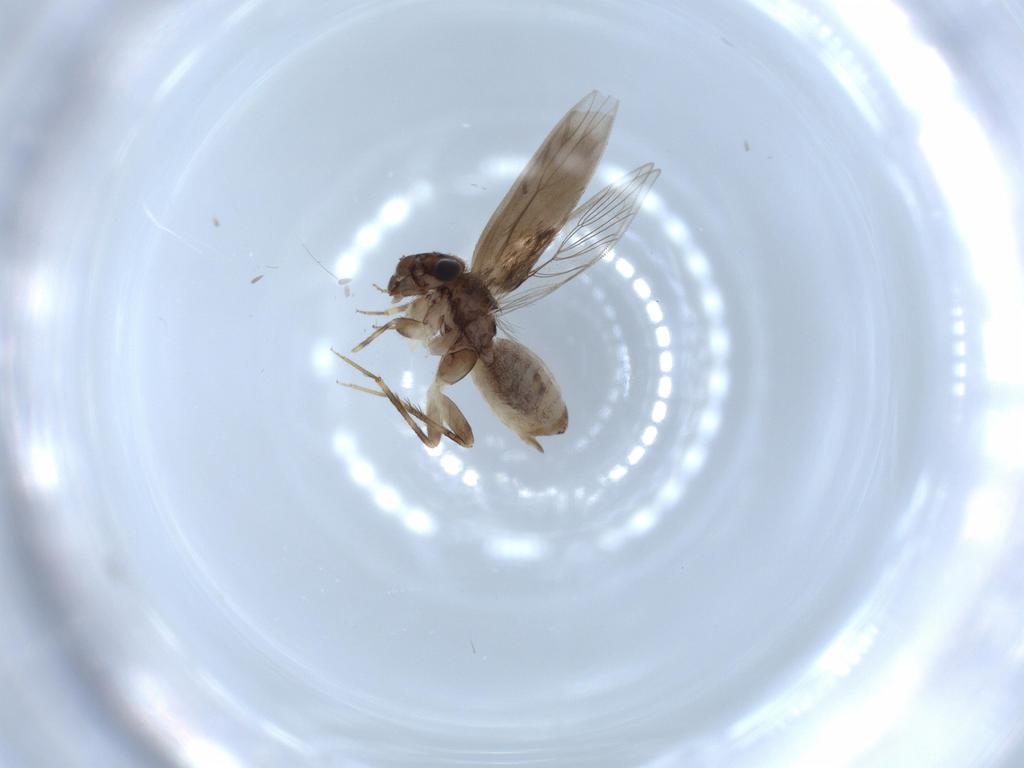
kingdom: Animalia
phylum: Arthropoda
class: Insecta
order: Psocodea
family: Lepidopsocidae
